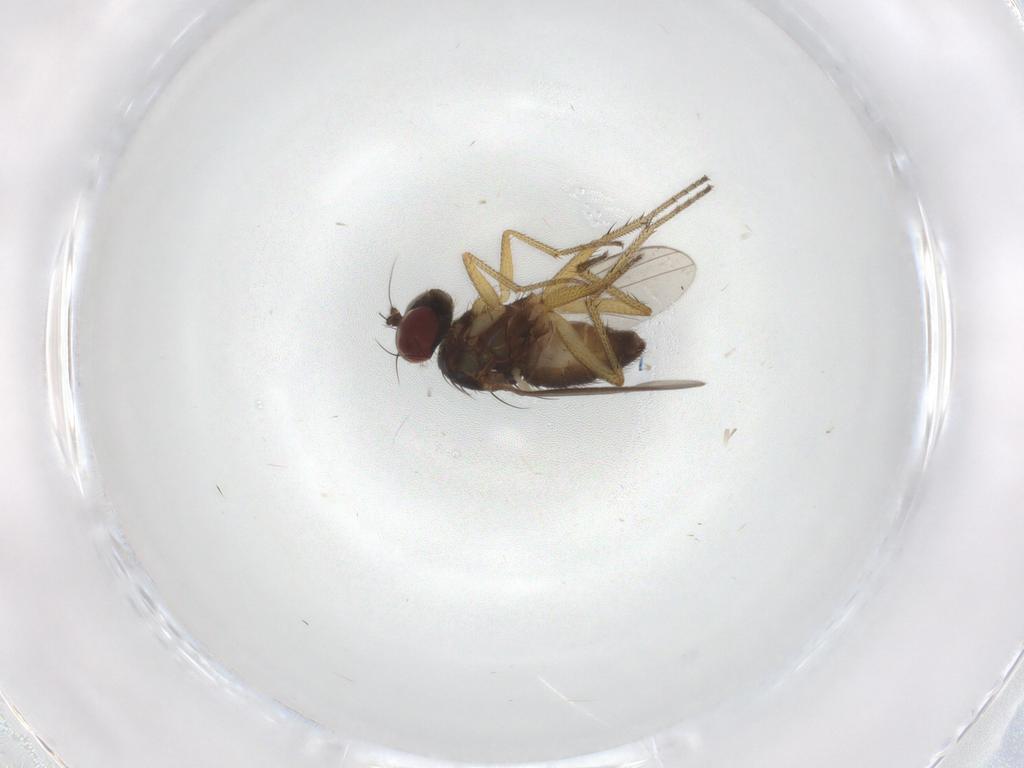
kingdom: Animalia
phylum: Arthropoda
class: Insecta
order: Diptera
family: Dolichopodidae
